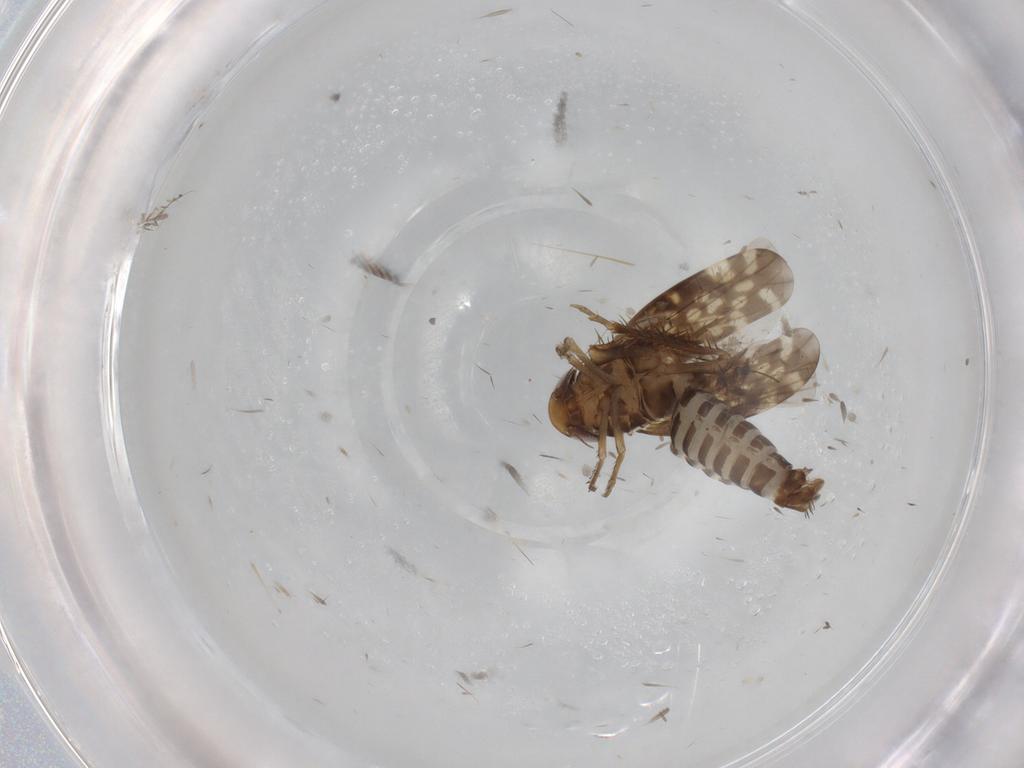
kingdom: Animalia
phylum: Arthropoda
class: Insecta
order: Hemiptera
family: Cicadellidae
